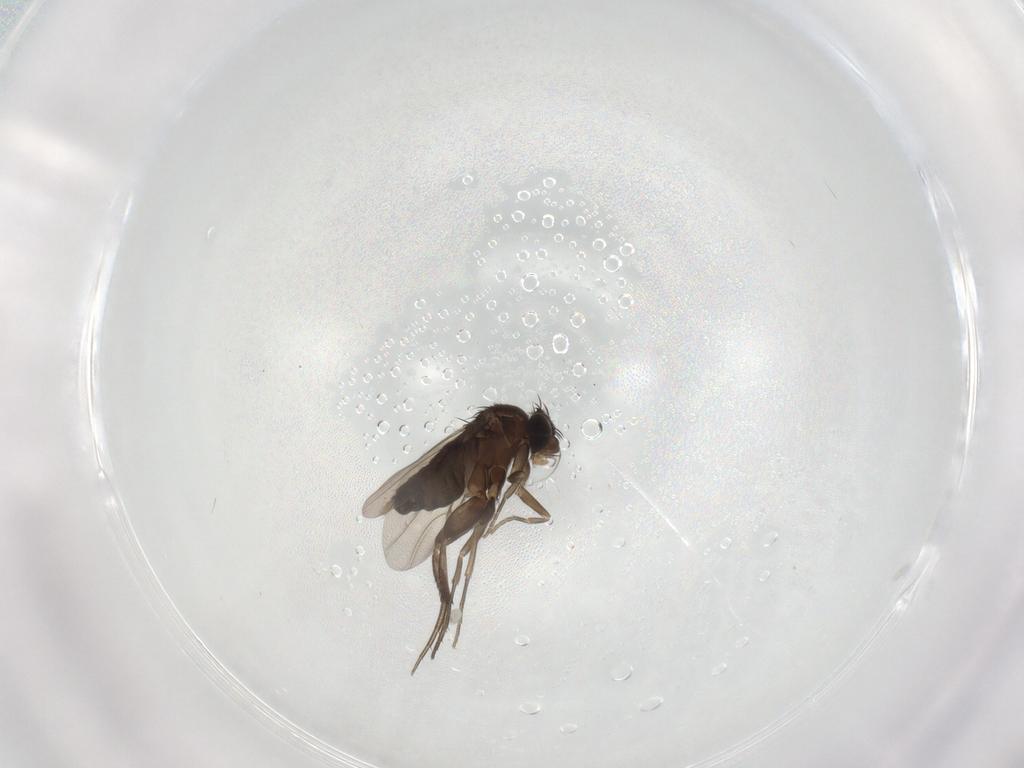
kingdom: Animalia
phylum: Arthropoda
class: Insecta
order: Diptera
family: Phoridae
